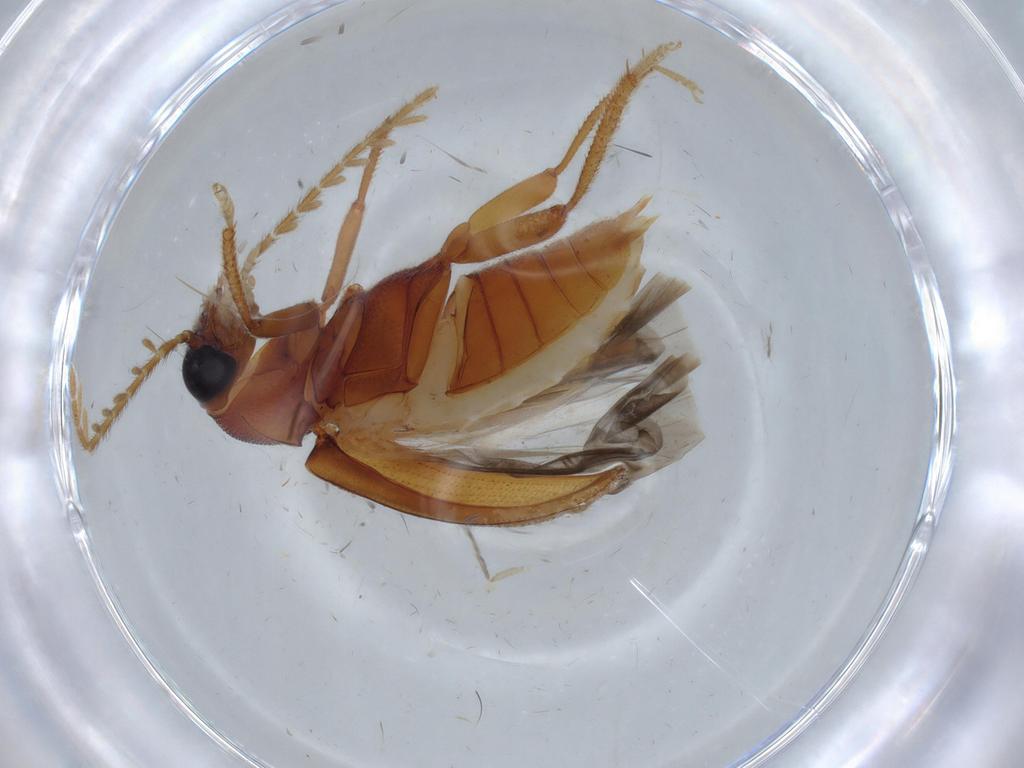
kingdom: Animalia
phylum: Arthropoda
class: Insecta
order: Coleoptera
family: Ptilodactylidae
